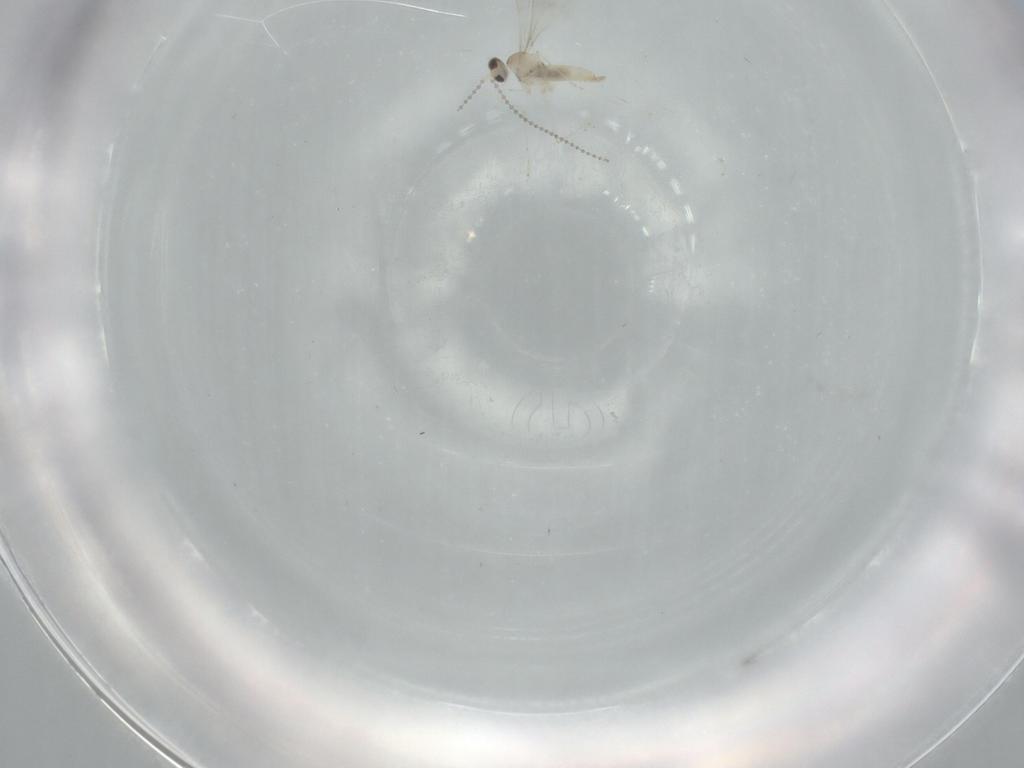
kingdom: Animalia
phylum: Arthropoda
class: Insecta
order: Diptera
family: Cecidomyiidae
